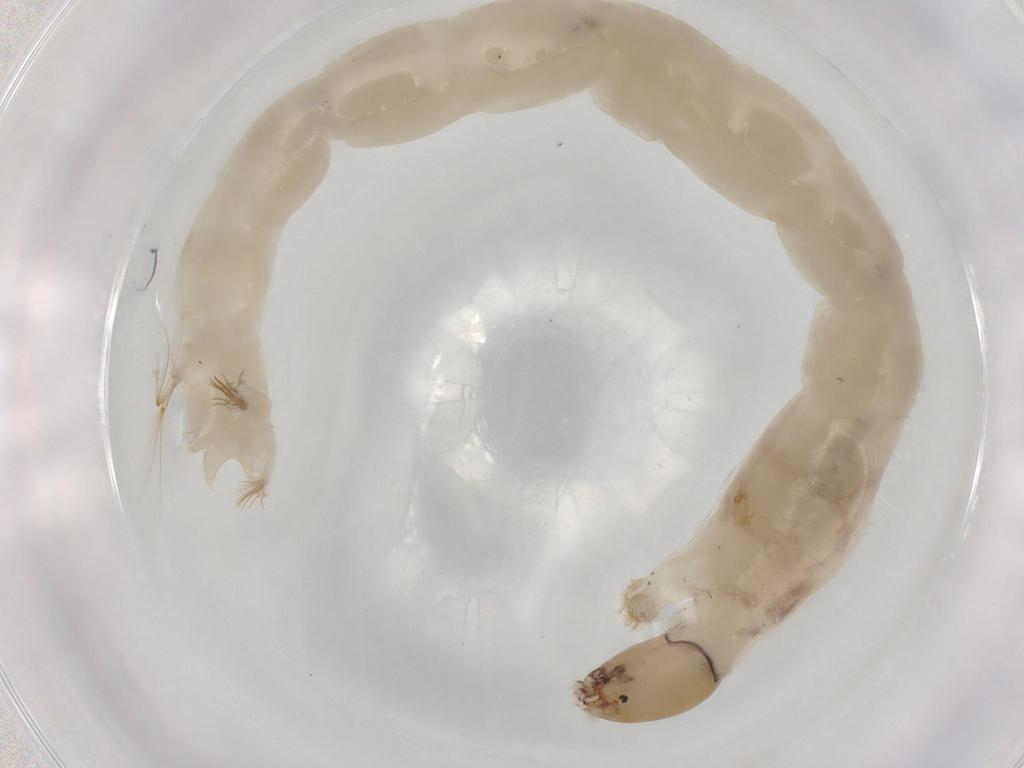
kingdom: Animalia
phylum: Arthropoda
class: Insecta
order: Diptera
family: Chironomidae
